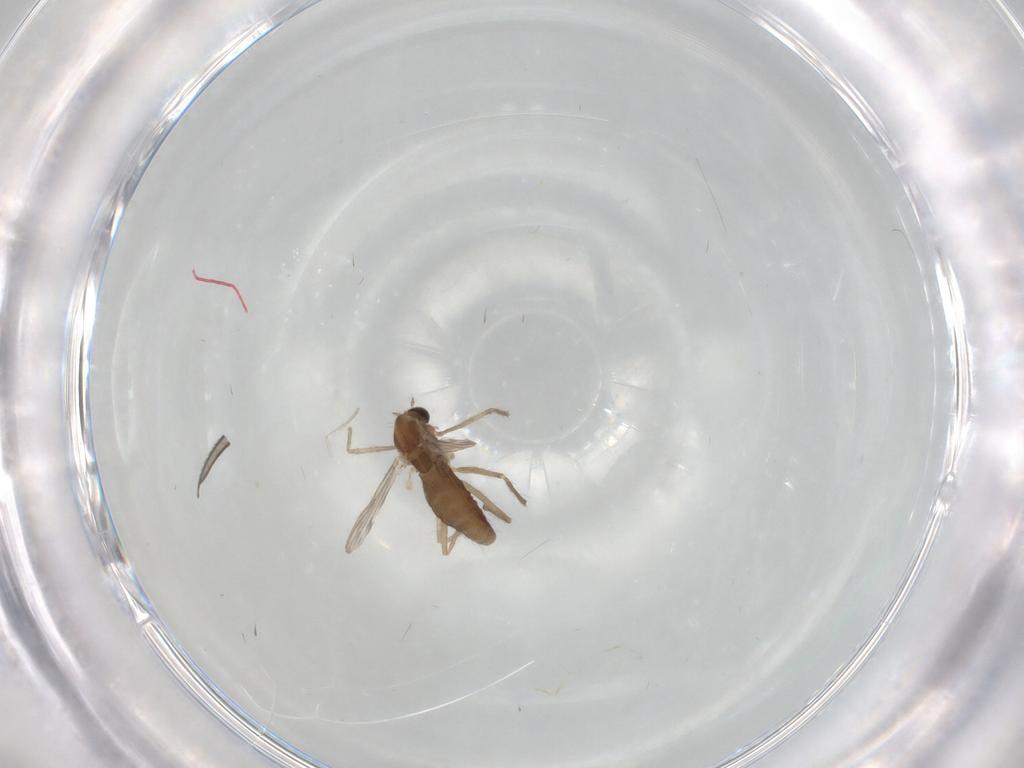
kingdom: Animalia
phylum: Arthropoda
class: Insecta
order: Diptera
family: Chironomidae
